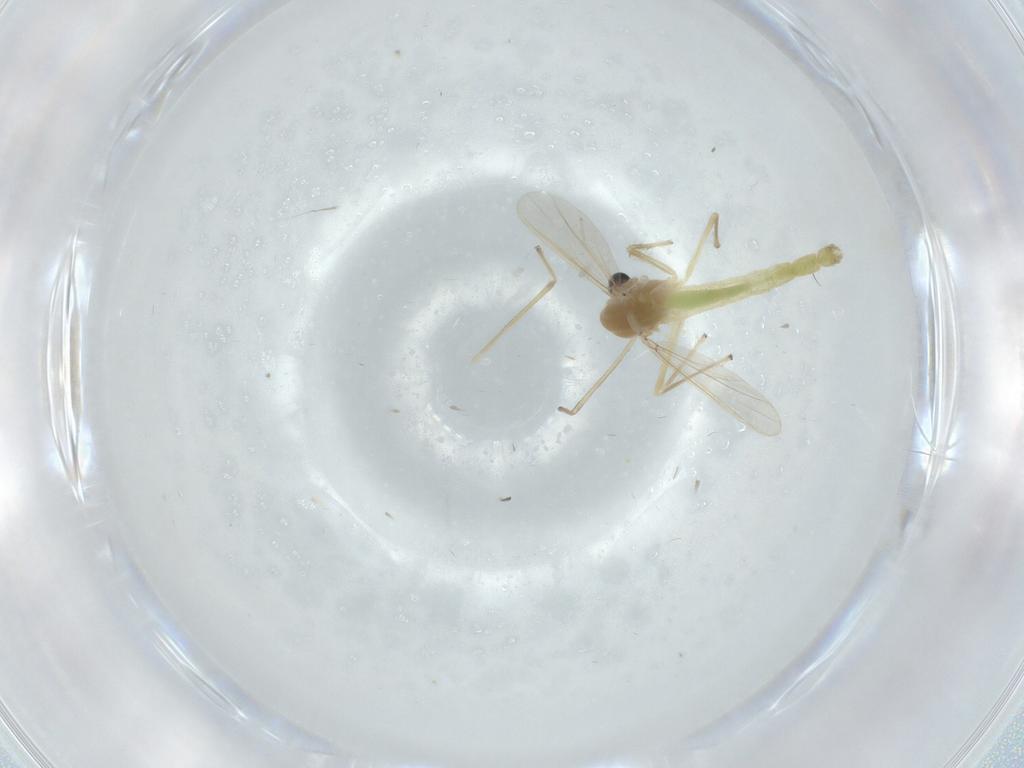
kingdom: Animalia
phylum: Arthropoda
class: Insecta
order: Diptera
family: Chironomidae
